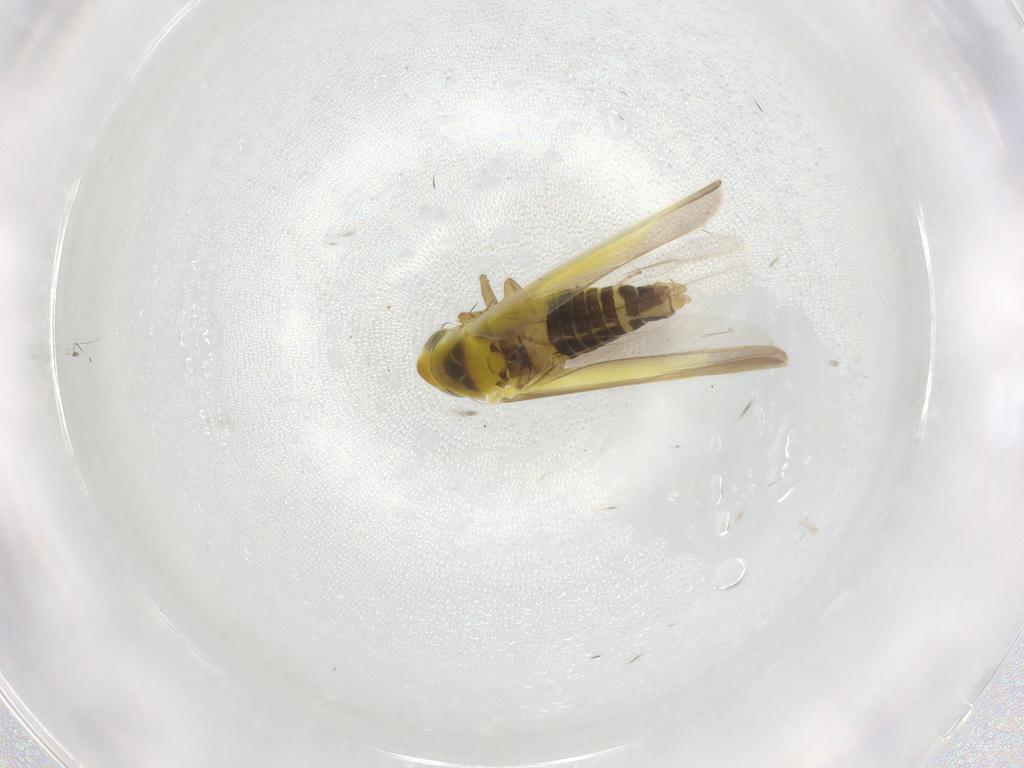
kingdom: Animalia
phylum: Arthropoda
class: Insecta
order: Hemiptera
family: Cicadellidae
